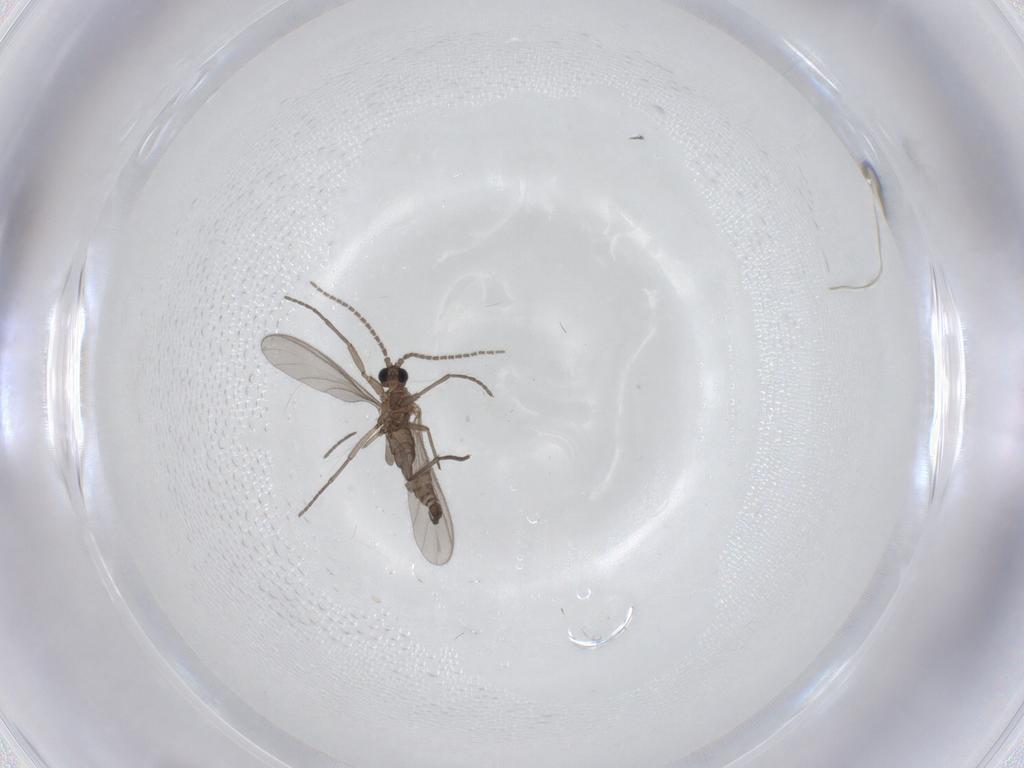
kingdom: Animalia
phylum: Arthropoda
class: Insecta
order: Diptera
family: Sciaridae
